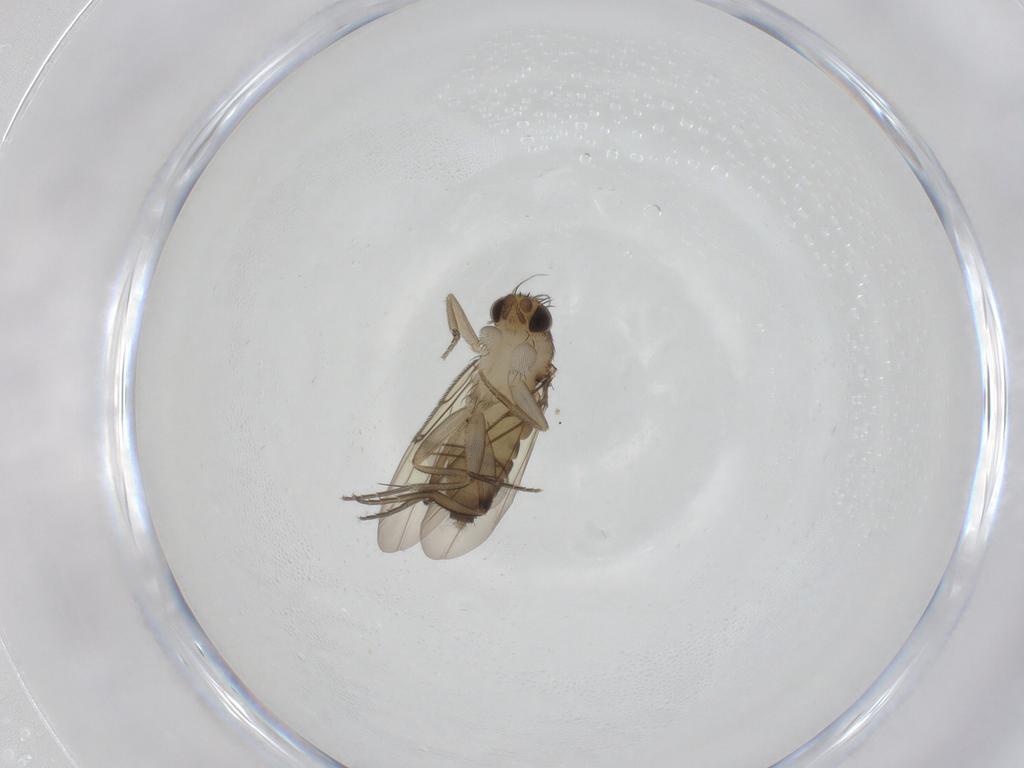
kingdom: Animalia
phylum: Arthropoda
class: Insecta
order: Diptera
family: Phoridae
